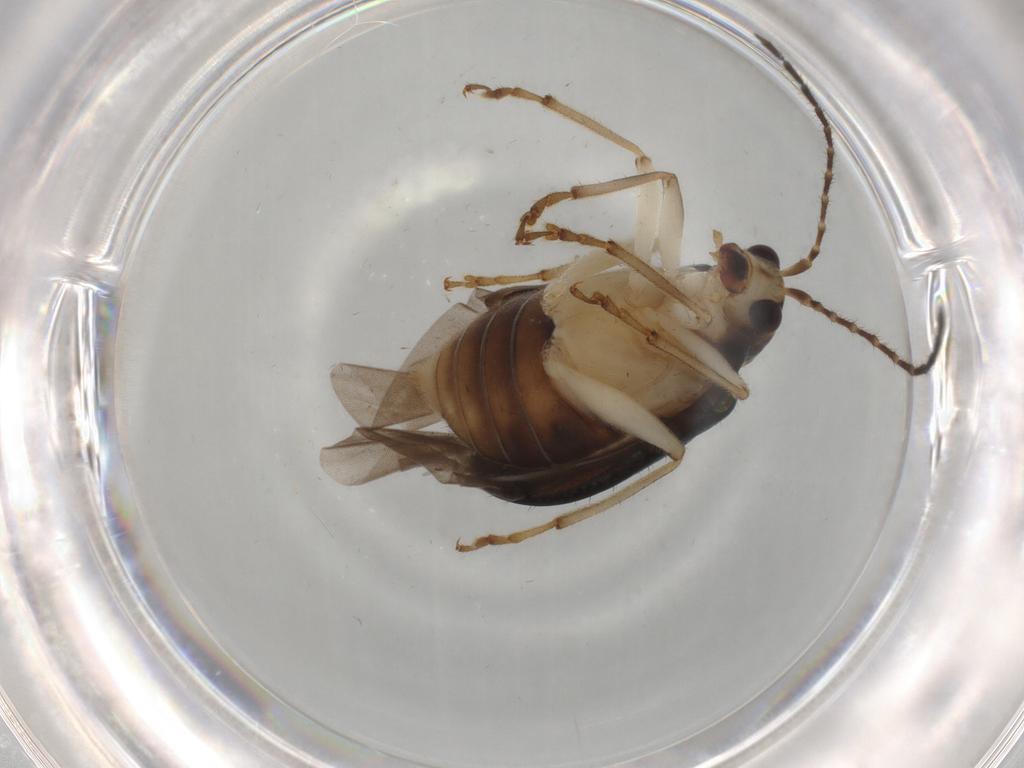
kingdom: Animalia
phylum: Arthropoda
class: Insecta
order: Coleoptera
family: Chrysomelidae
